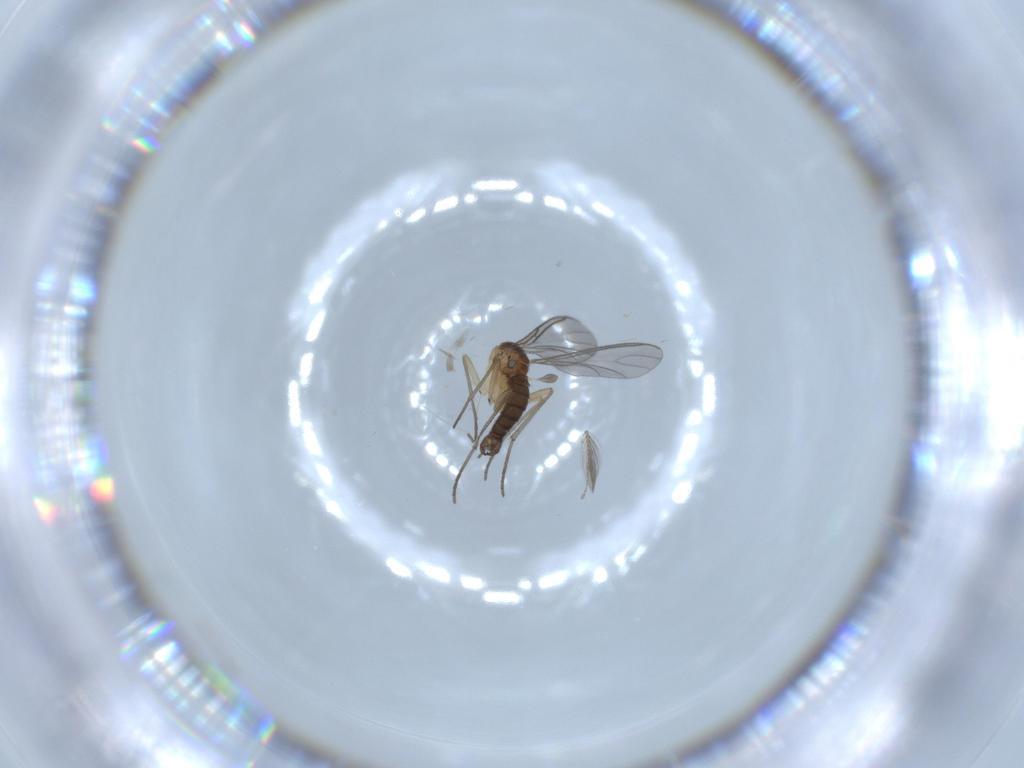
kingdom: Animalia
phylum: Arthropoda
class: Insecta
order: Diptera
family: Sciaridae
